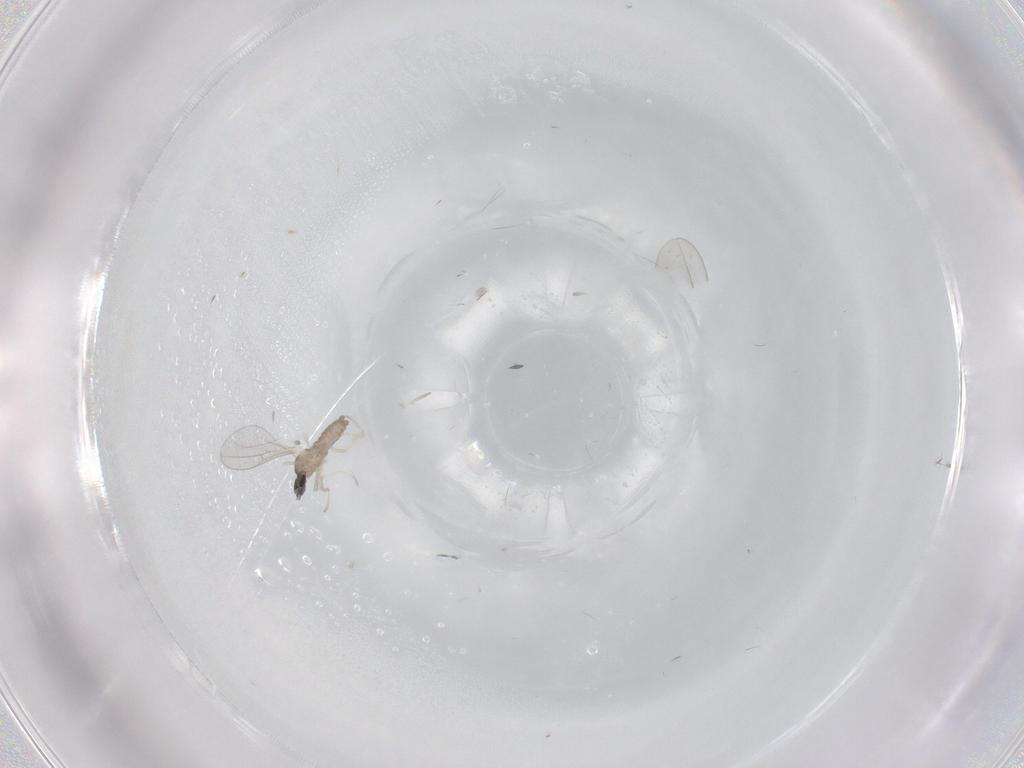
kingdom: Animalia
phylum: Arthropoda
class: Insecta
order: Diptera
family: Cecidomyiidae
